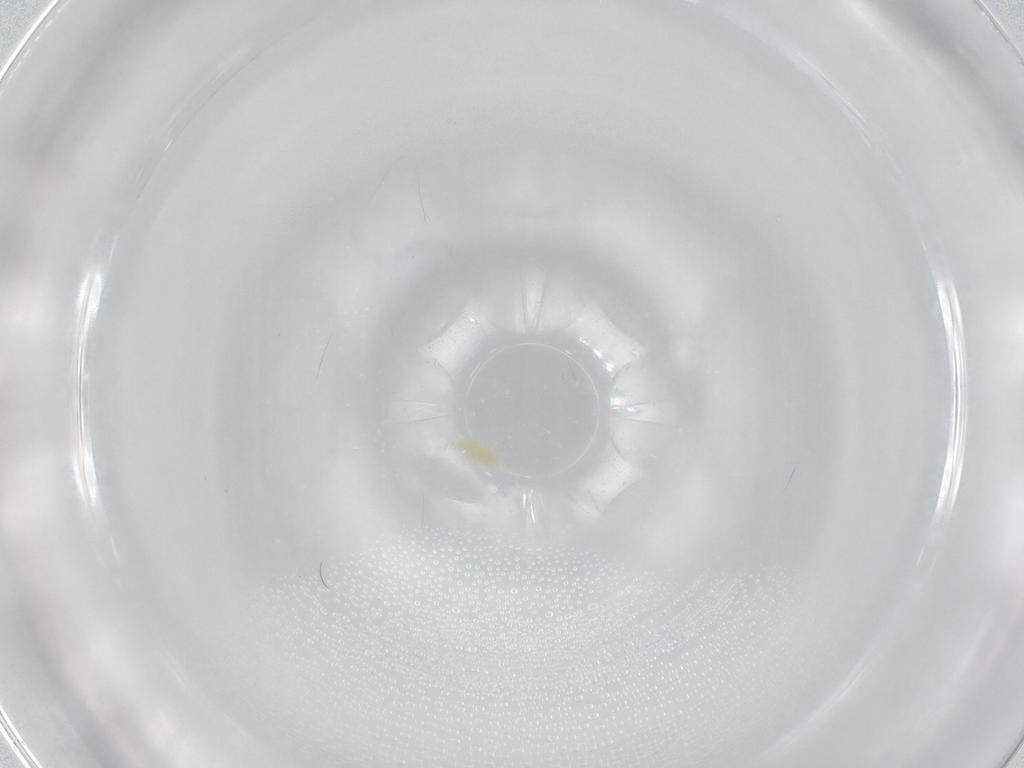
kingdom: Animalia
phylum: Arthropoda
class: Arachnida
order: Trombidiformes
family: Eupodidae
